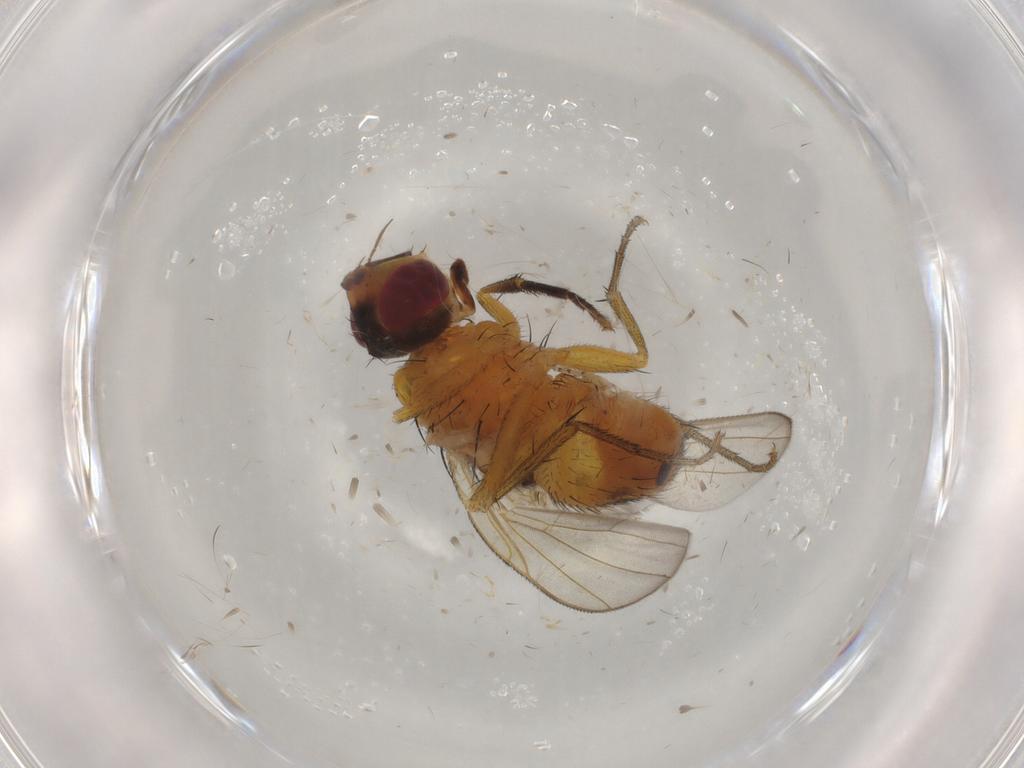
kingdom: Animalia
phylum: Arthropoda
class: Insecta
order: Diptera
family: Muscidae
